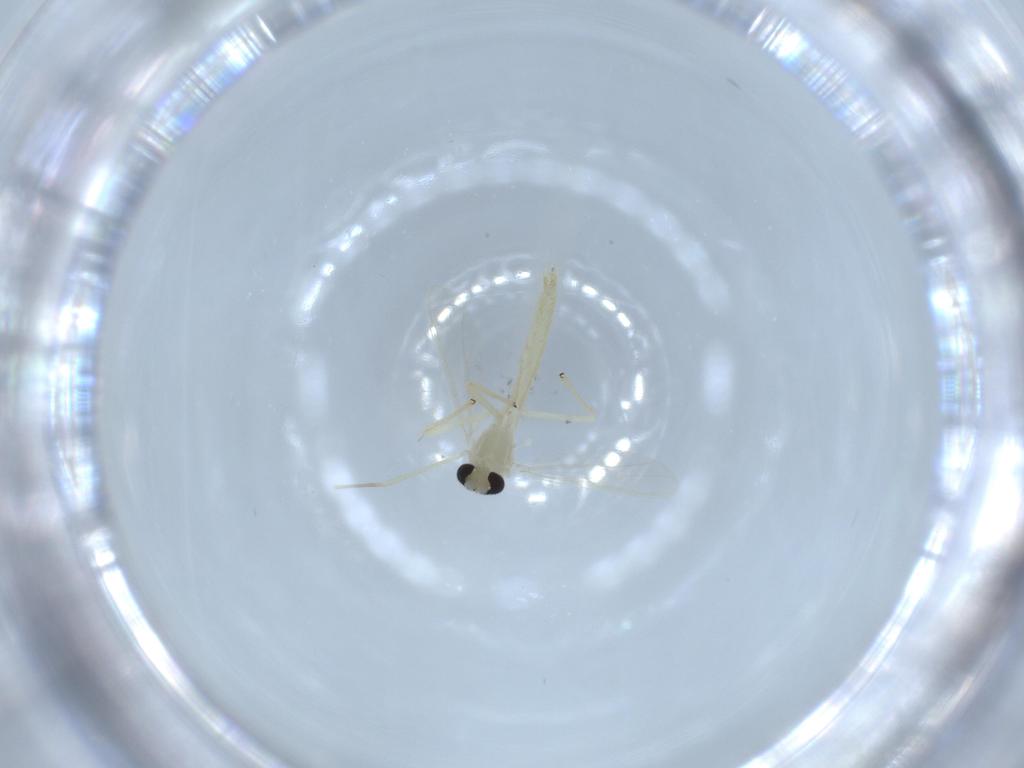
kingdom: Animalia
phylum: Arthropoda
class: Insecta
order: Diptera
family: Chironomidae
